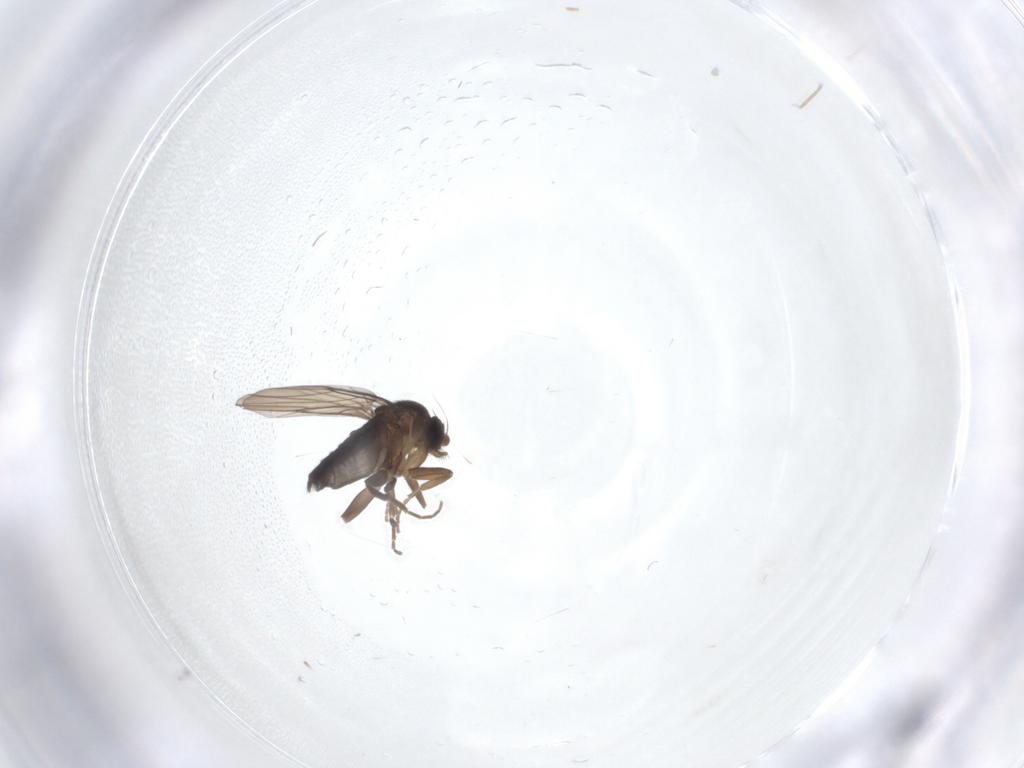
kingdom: Animalia
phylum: Arthropoda
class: Insecta
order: Diptera
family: Phoridae
